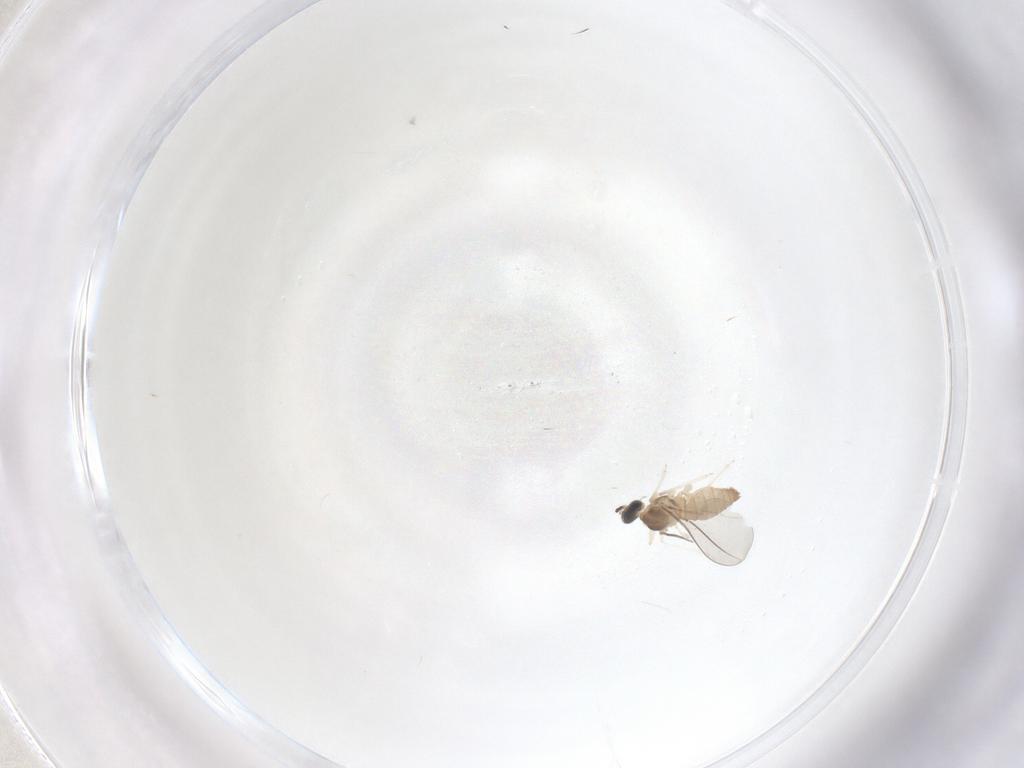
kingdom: Animalia
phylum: Arthropoda
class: Insecta
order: Diptera
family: Cecidomyiidae
